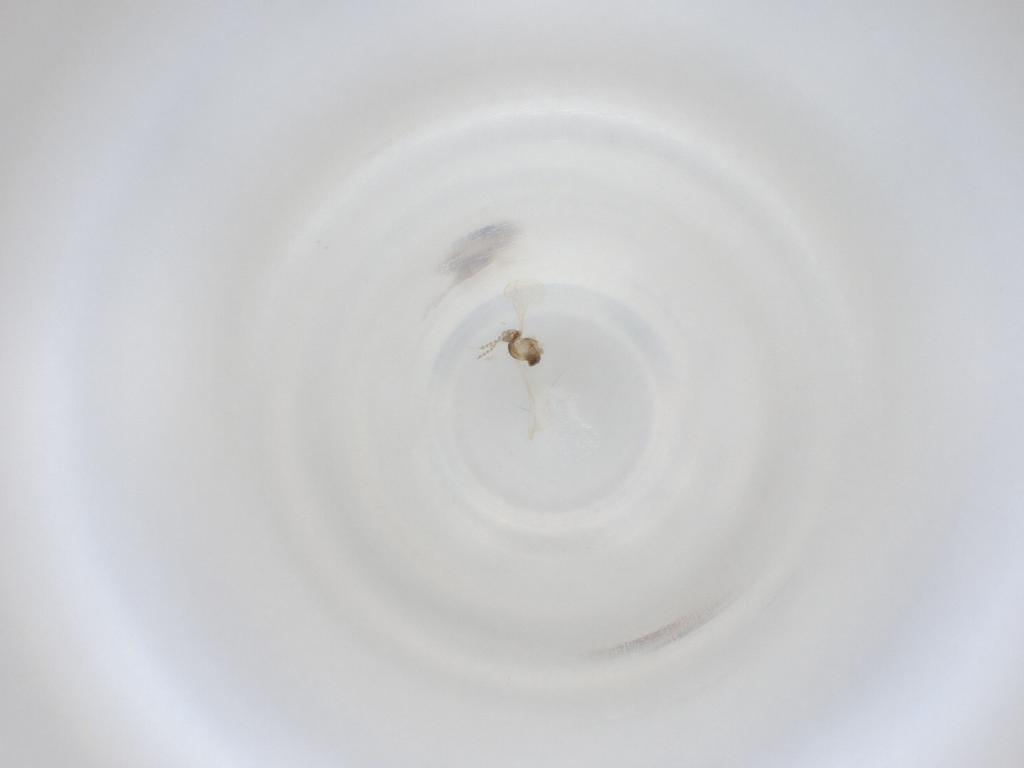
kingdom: Animalia
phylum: Arthropoda
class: Insecta
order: Diptera
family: Cecidomyiidae
